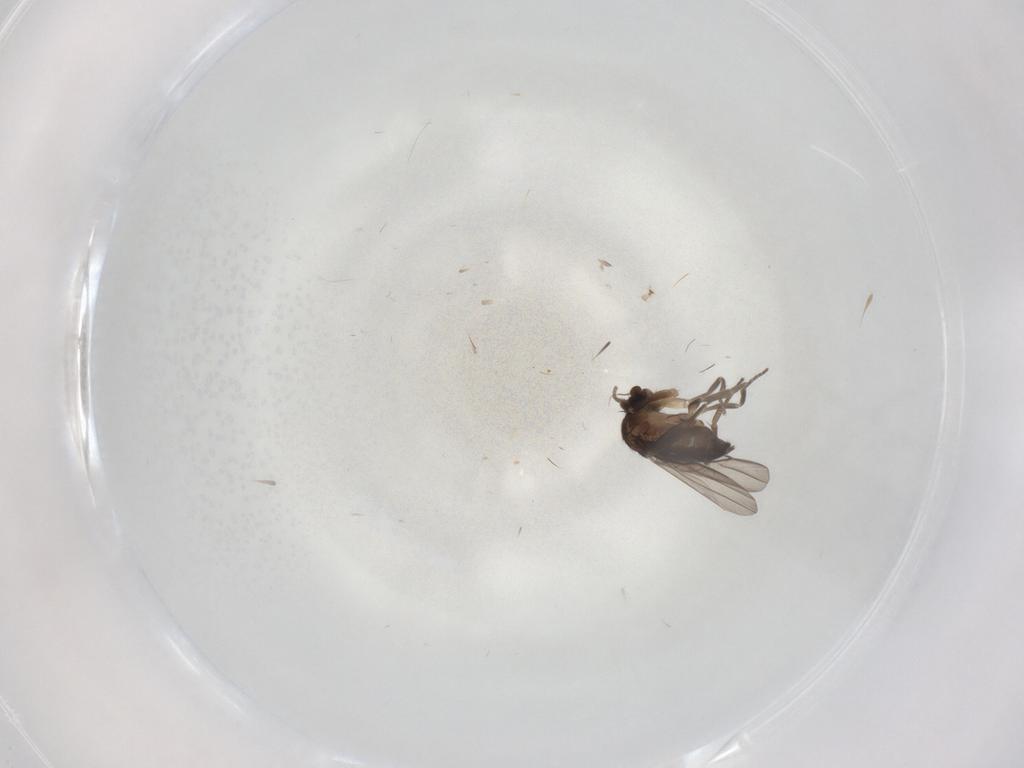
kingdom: Animalia
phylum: Arthropoda
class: Insecta
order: Diptera
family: Phoridae
